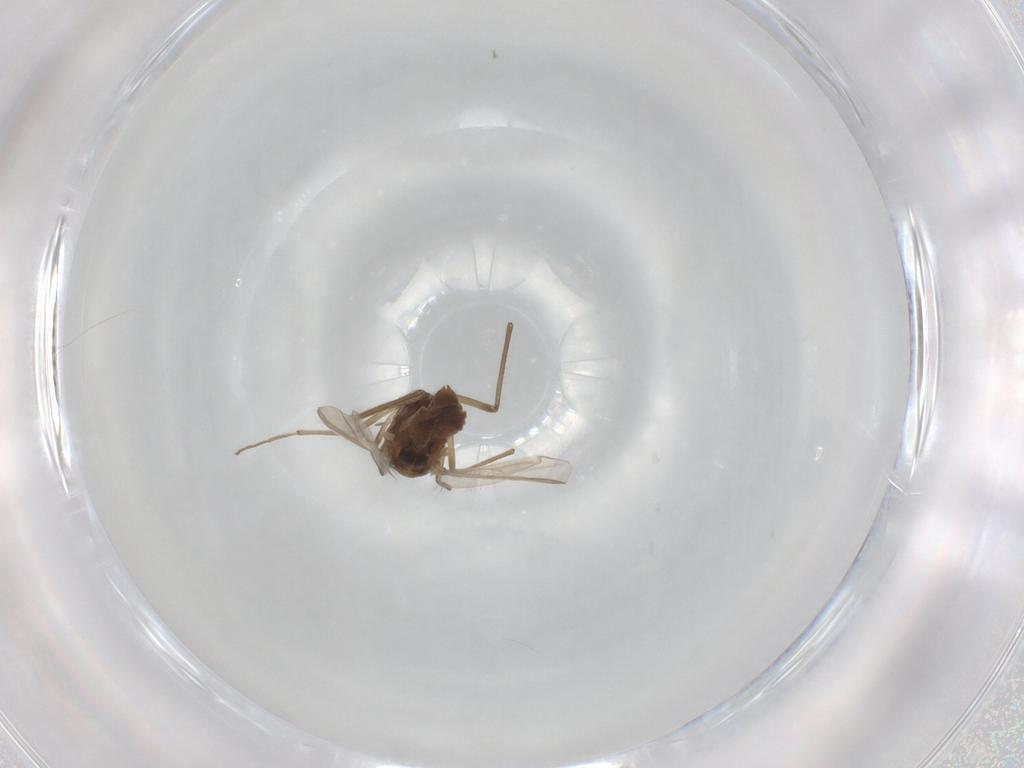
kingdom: Animalia
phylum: Arthropoda
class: Insecta
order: Diptera
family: Chironomidae
